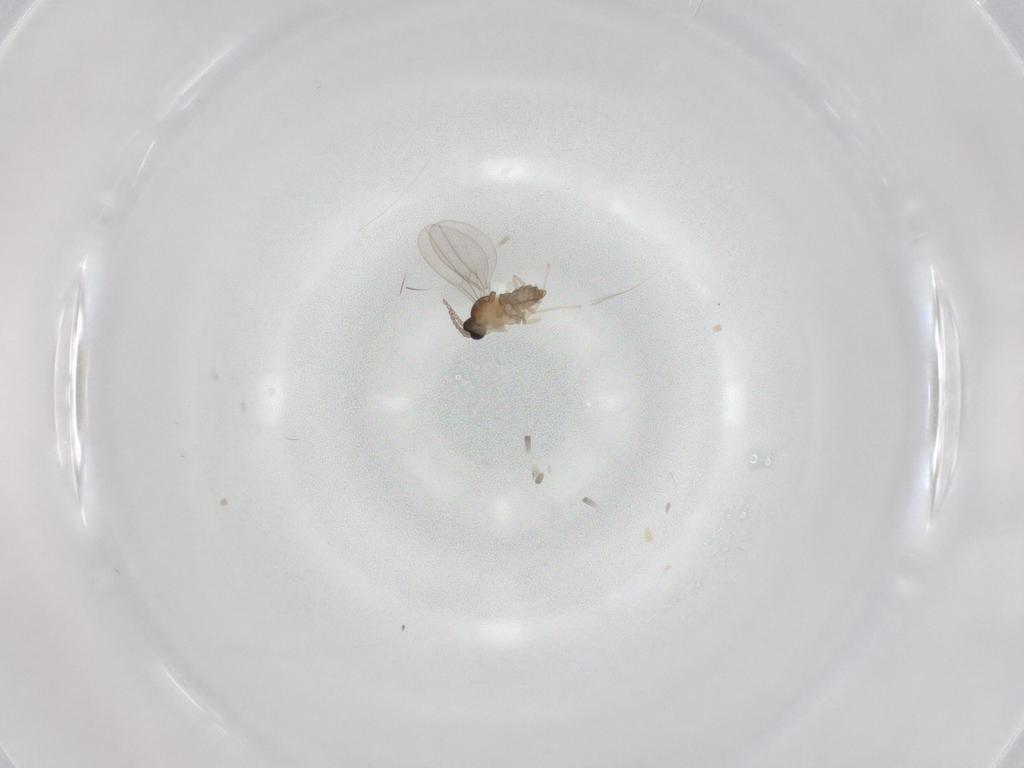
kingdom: Animalia
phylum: Arthropoda
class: Insecta
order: Diptera
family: Cecidomyiidae
